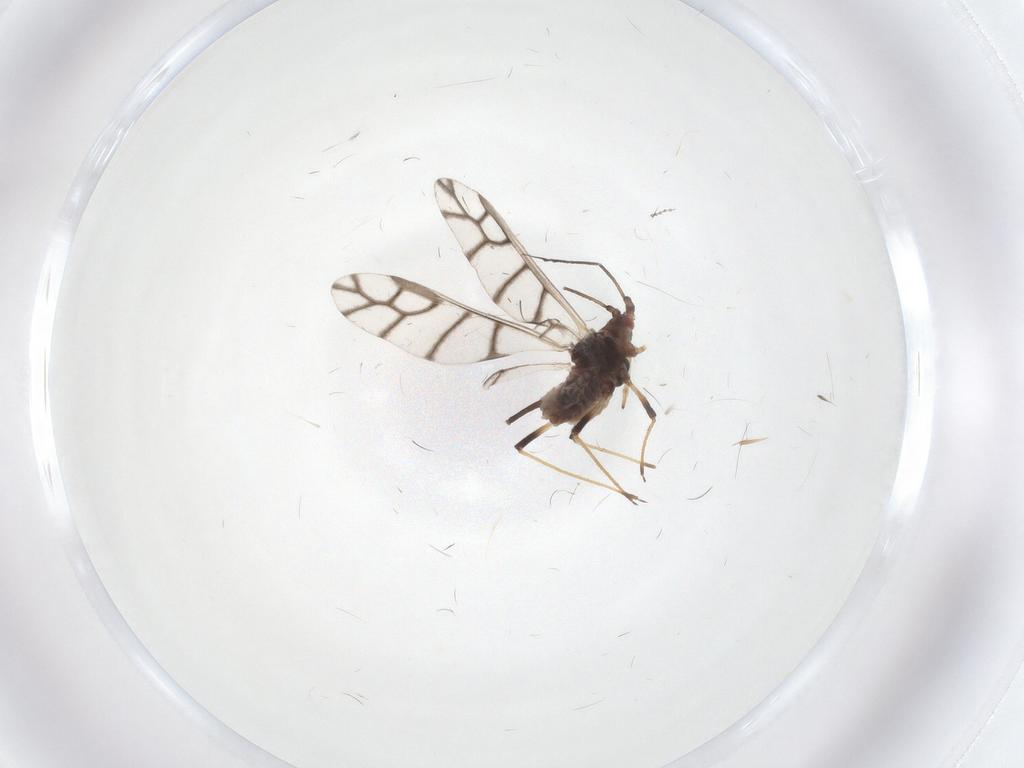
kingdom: Animalia
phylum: Arthropoda
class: Insecta
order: Hemiptera
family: Aphididae
